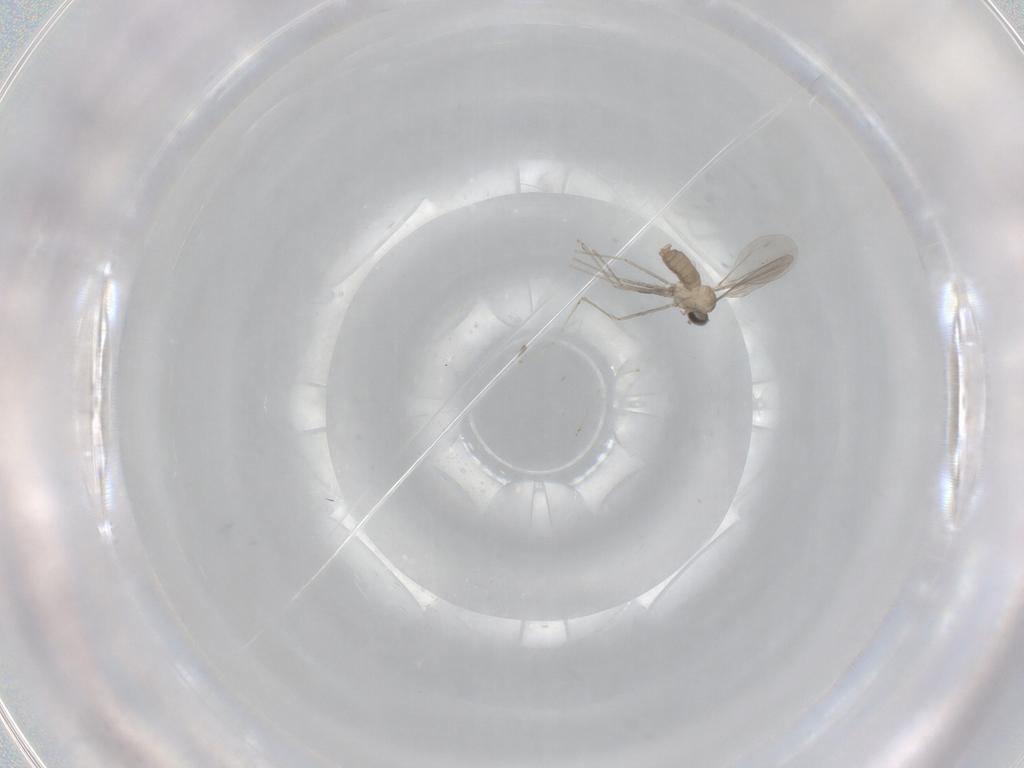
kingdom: Animalia
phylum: Arthropoda
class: Insecta
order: Diptera
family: Cecidomyiidae
